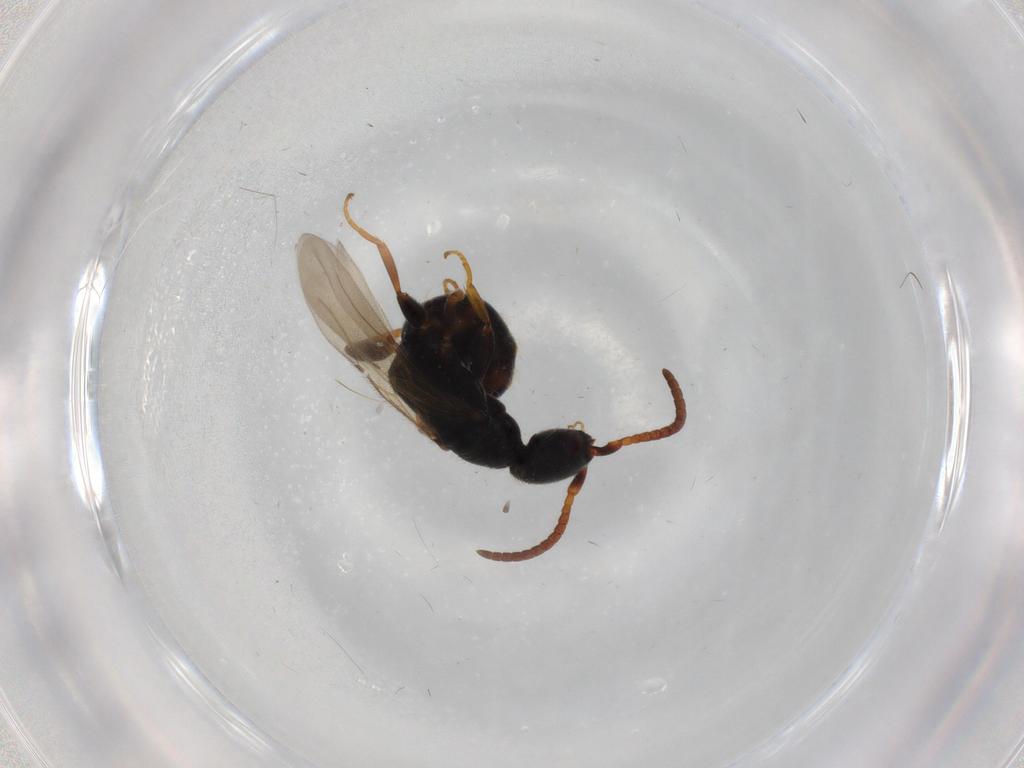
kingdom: Animalia
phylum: Arthropoda
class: Insecta
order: Hymenoptera
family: Bethylidae
